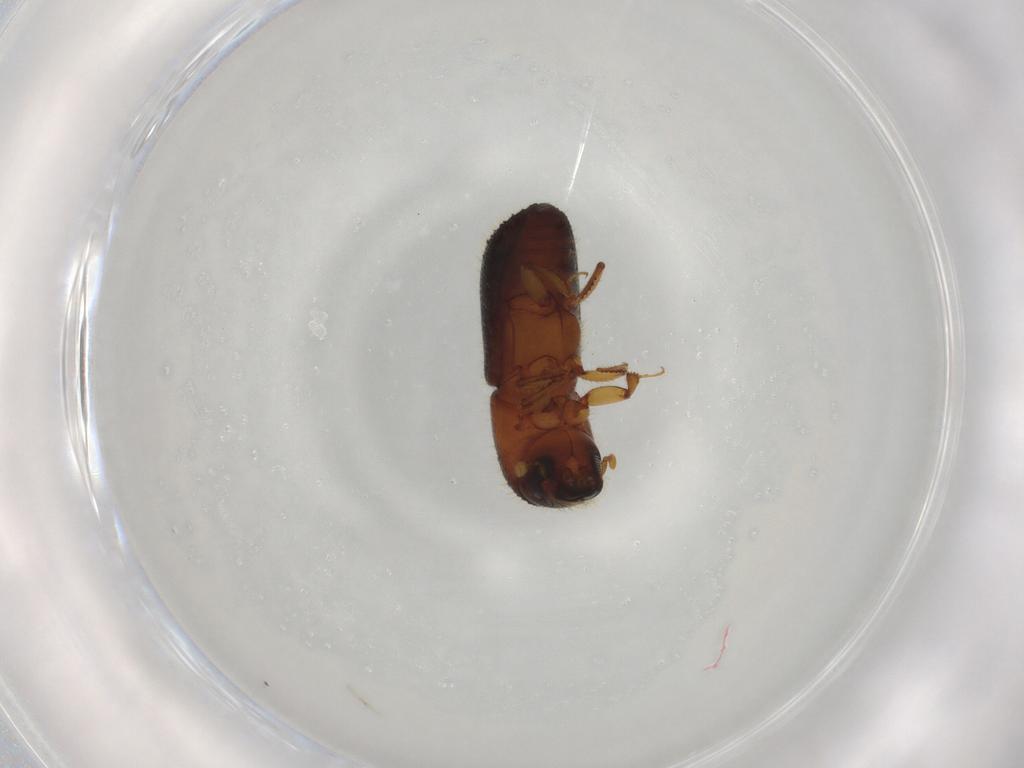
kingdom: Animalia
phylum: Arthropoda
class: Insecta
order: Coleoptera
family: Curculionidae
